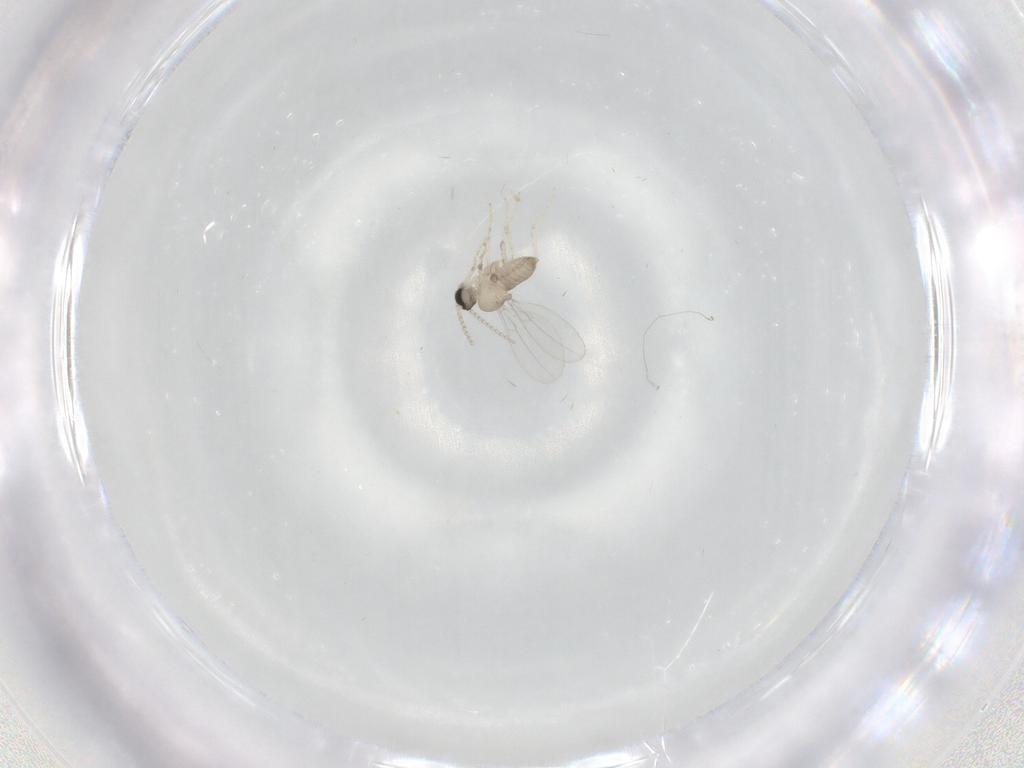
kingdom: Animalia
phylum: Arthropoda
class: Insecta
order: Diptera
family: Cecidomyiidae
